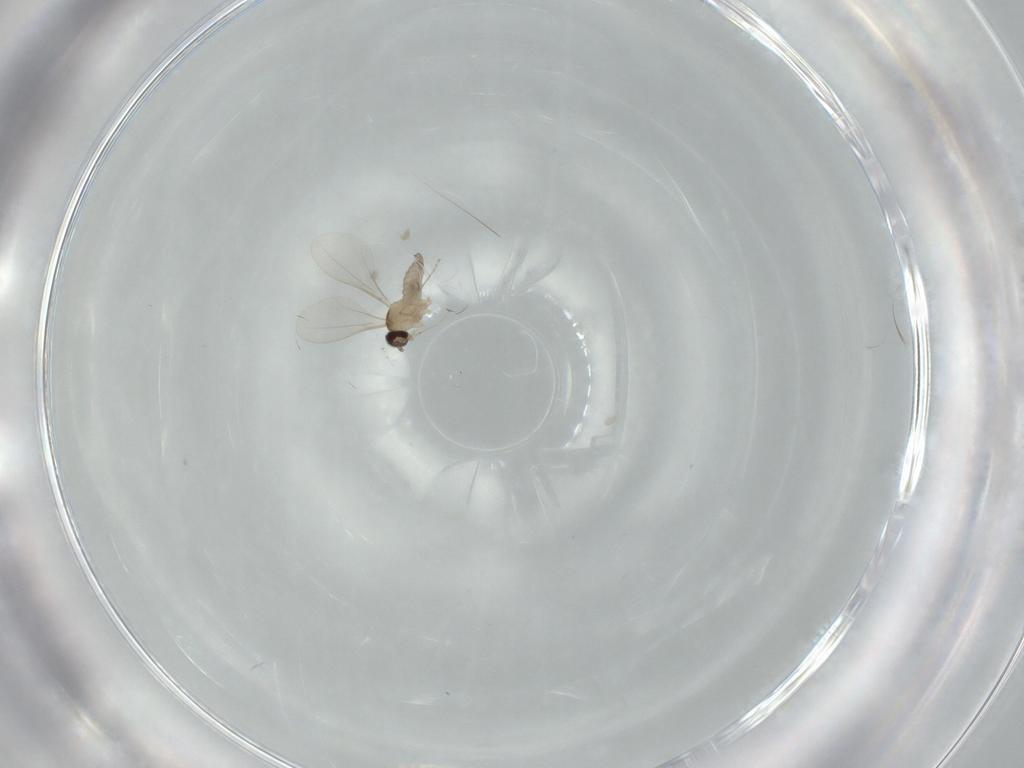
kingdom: Animalia
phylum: Arthropoda
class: Insecta
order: Diptera
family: Cecidomyiidae
